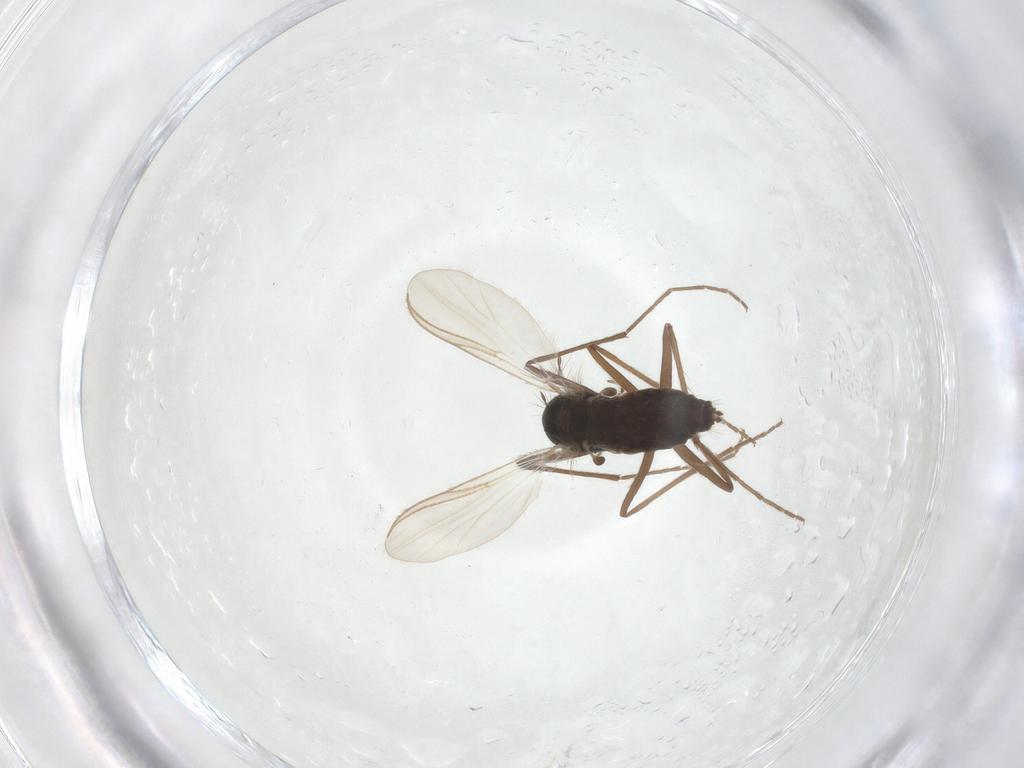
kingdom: Animalia
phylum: Arthropoda
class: Insecta
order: Diptera
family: Chironomidae
